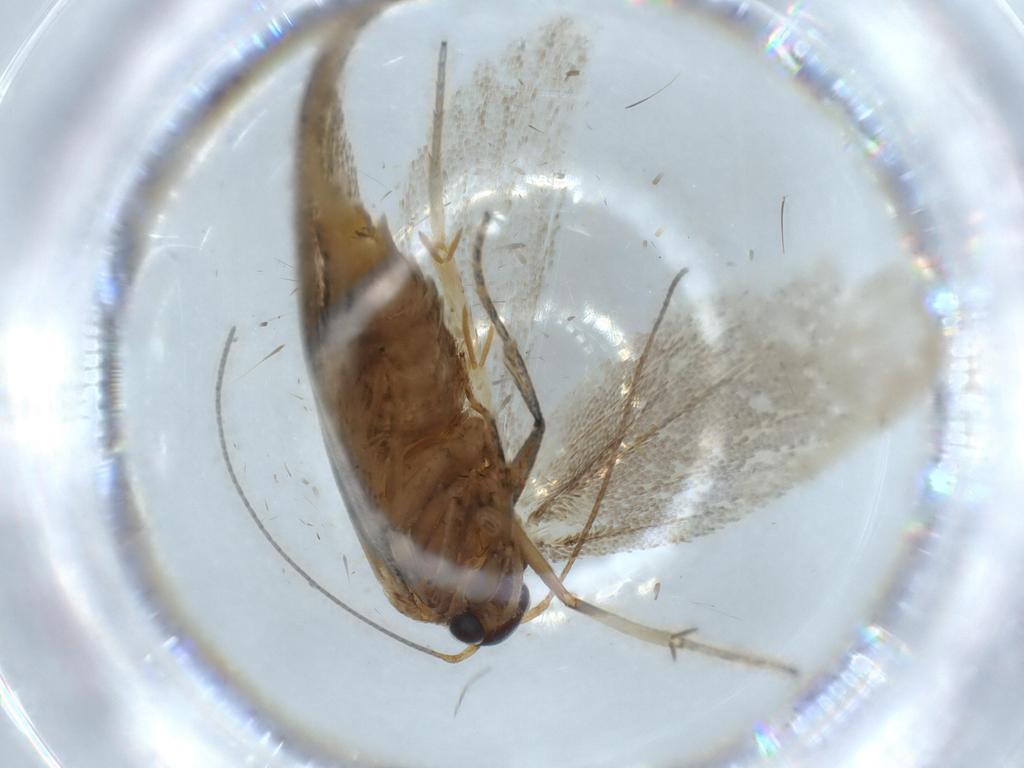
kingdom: Animalia
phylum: Arthropoda
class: Insecta
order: Lepidoptera
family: Oecophoridae
